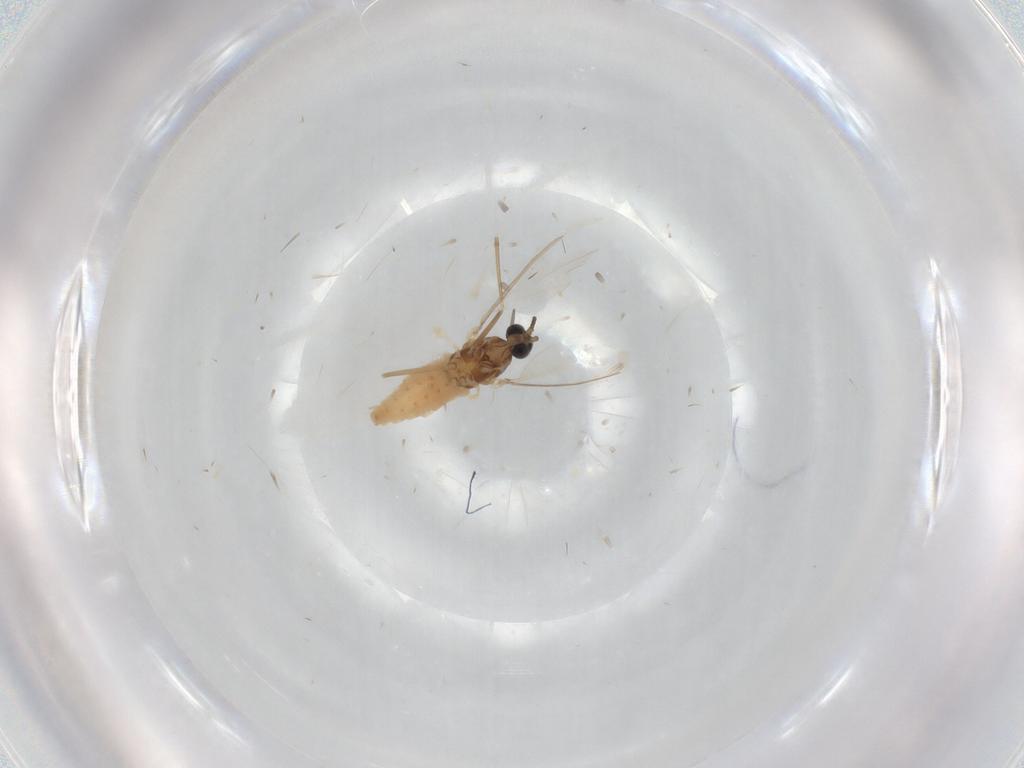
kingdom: Animalia
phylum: Arthropoda
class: Insecta
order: Diptera
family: Cecidomyiidae
